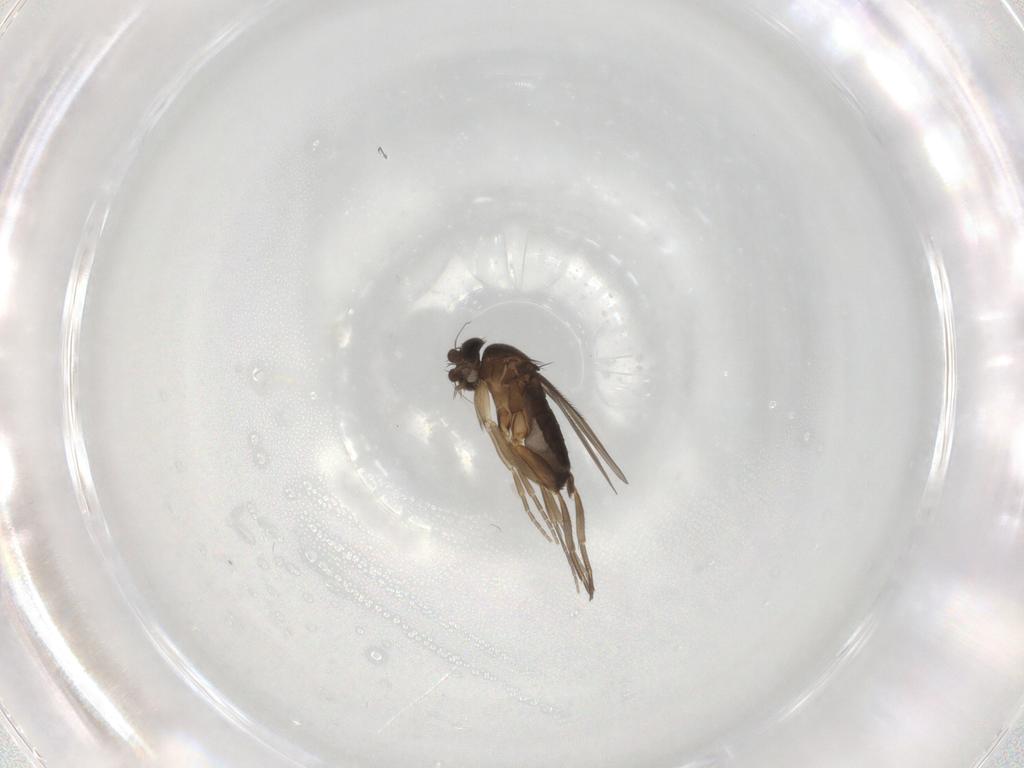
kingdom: Animalia
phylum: Arthropoda
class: Insecta
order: Diptera
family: Phoridae
